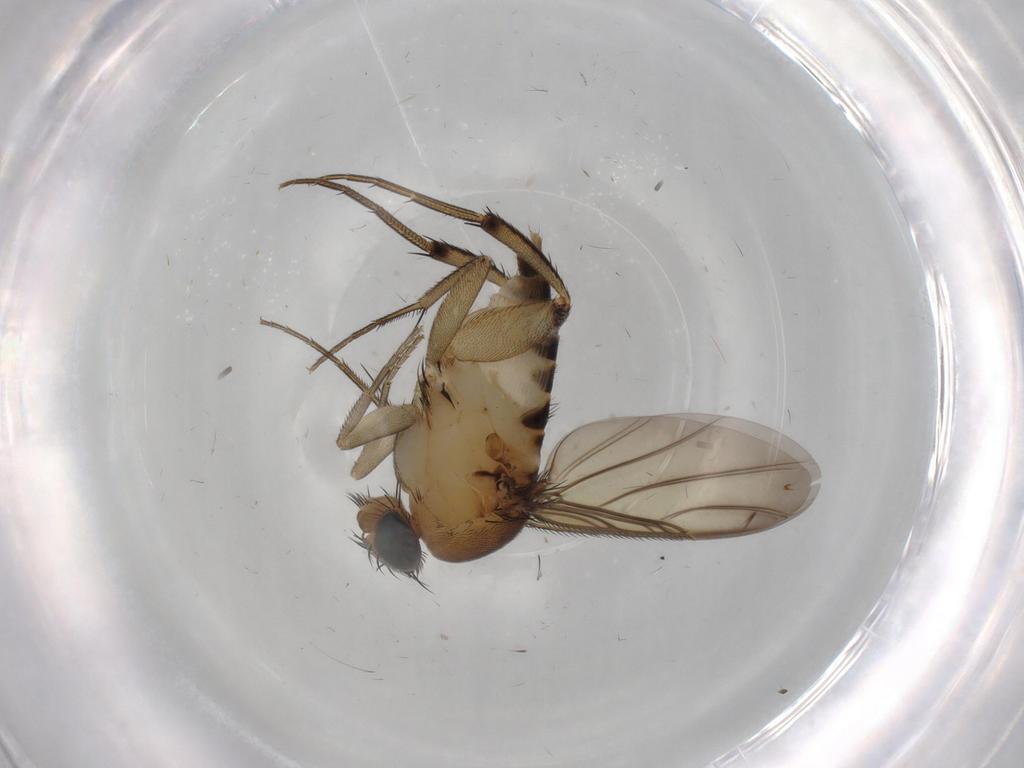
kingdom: Animalia
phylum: Arthropoda
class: Insecta
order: Diptera
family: Phoridae
